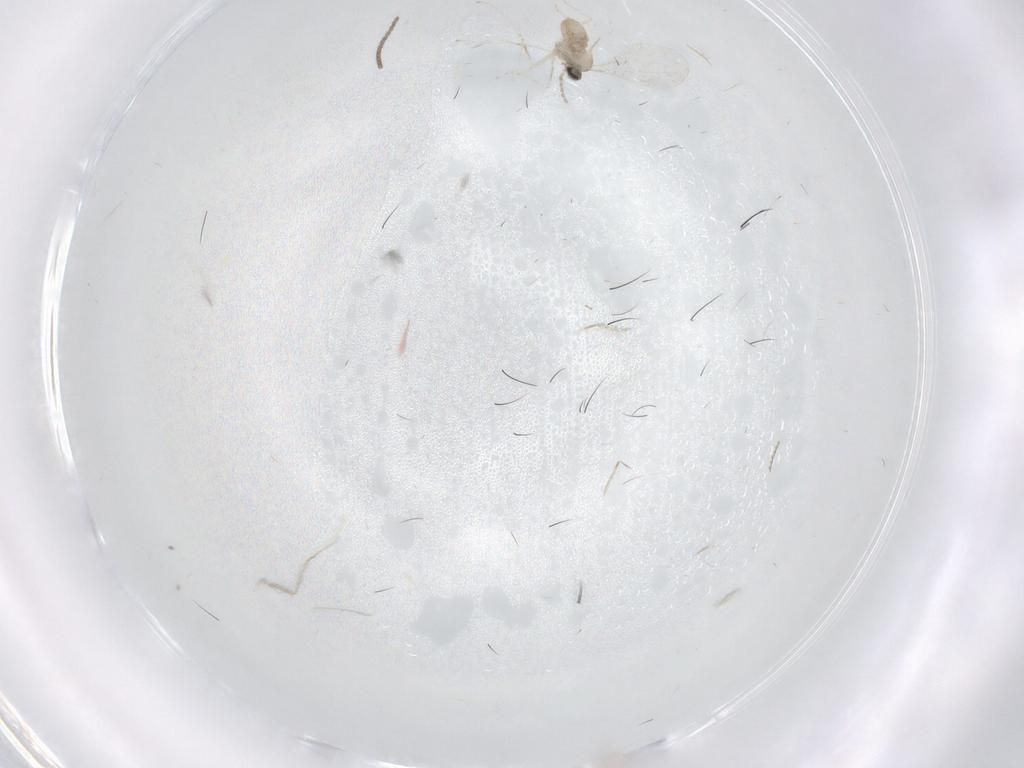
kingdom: Animalia
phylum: Arthropoda
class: Insecta
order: Diptera
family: Sciaridae
